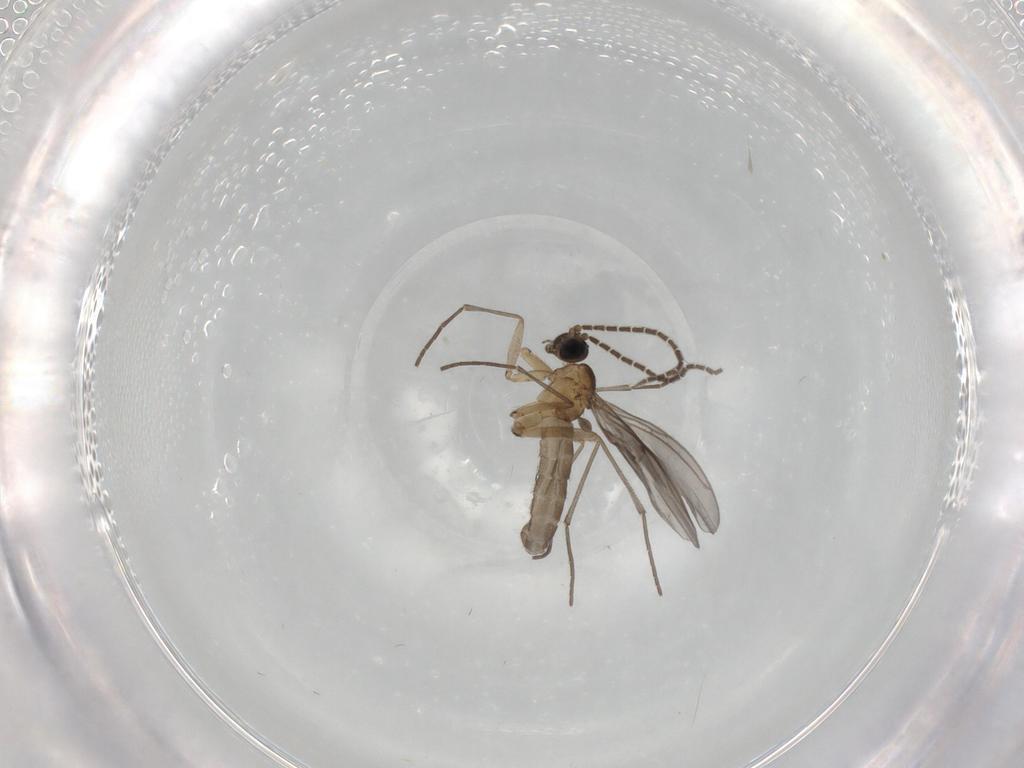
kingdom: Animalia
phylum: Arthropoda
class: Insecta
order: Diptera
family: Sciaridae
